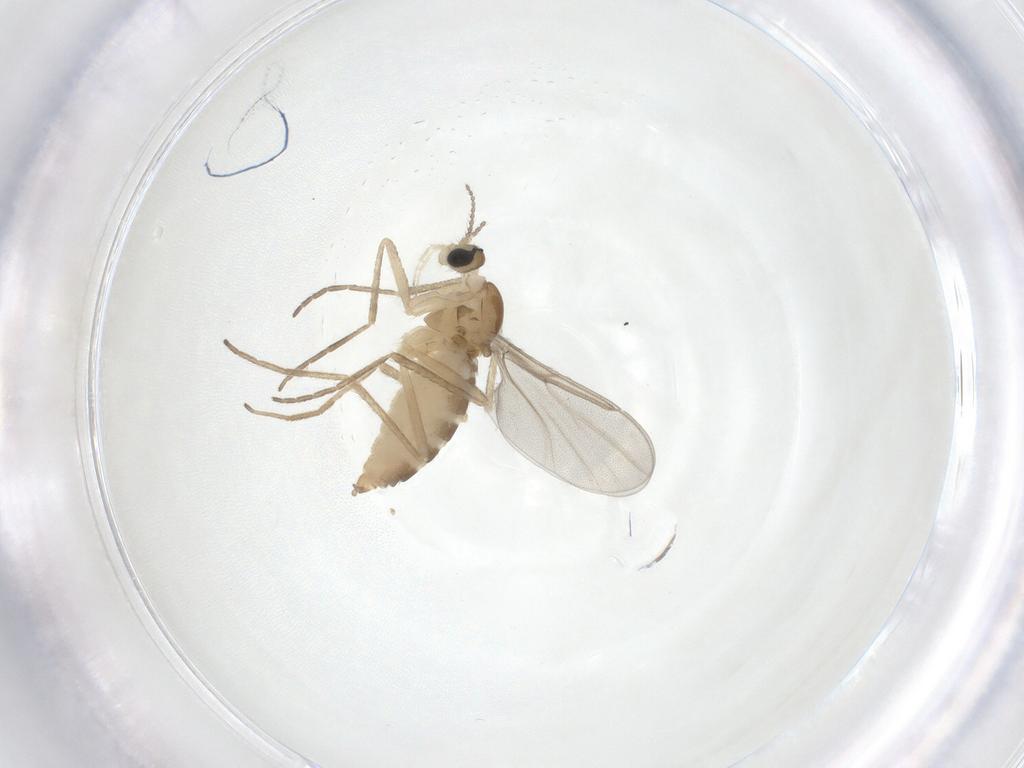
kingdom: Animalia
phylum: Arthropoda
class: Insecta
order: Diptera
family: Cecidomyiidae
